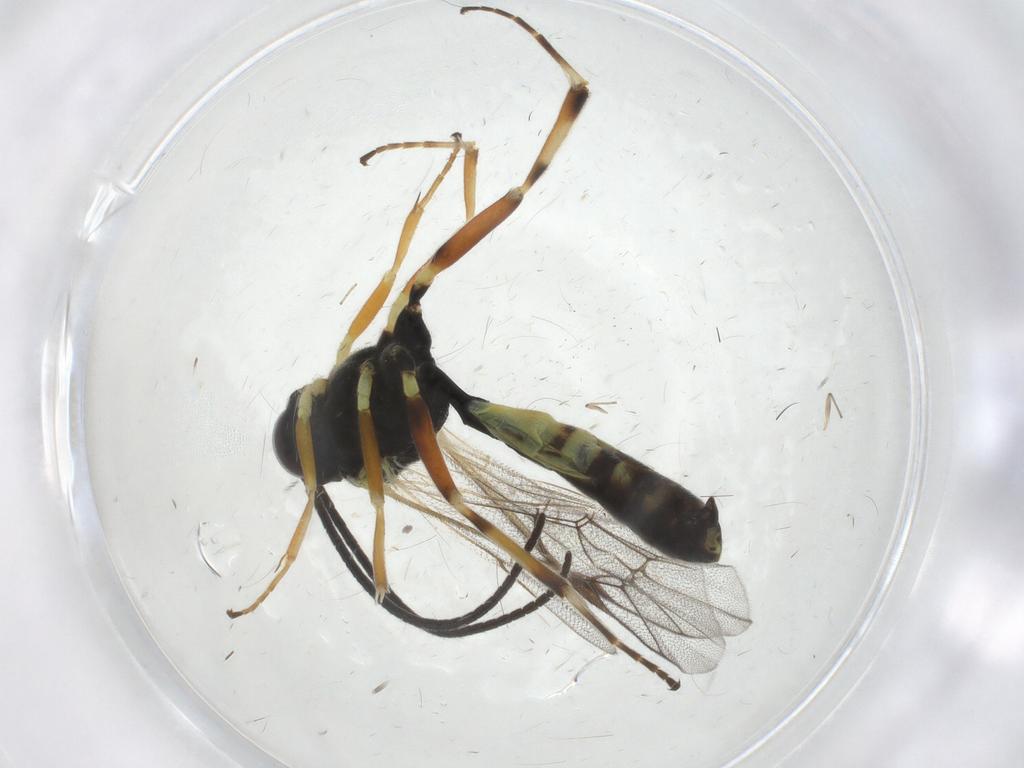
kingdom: Animalia
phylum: Arthropoda
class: Insecta
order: Hymenoptera
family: Ichneumonidae
